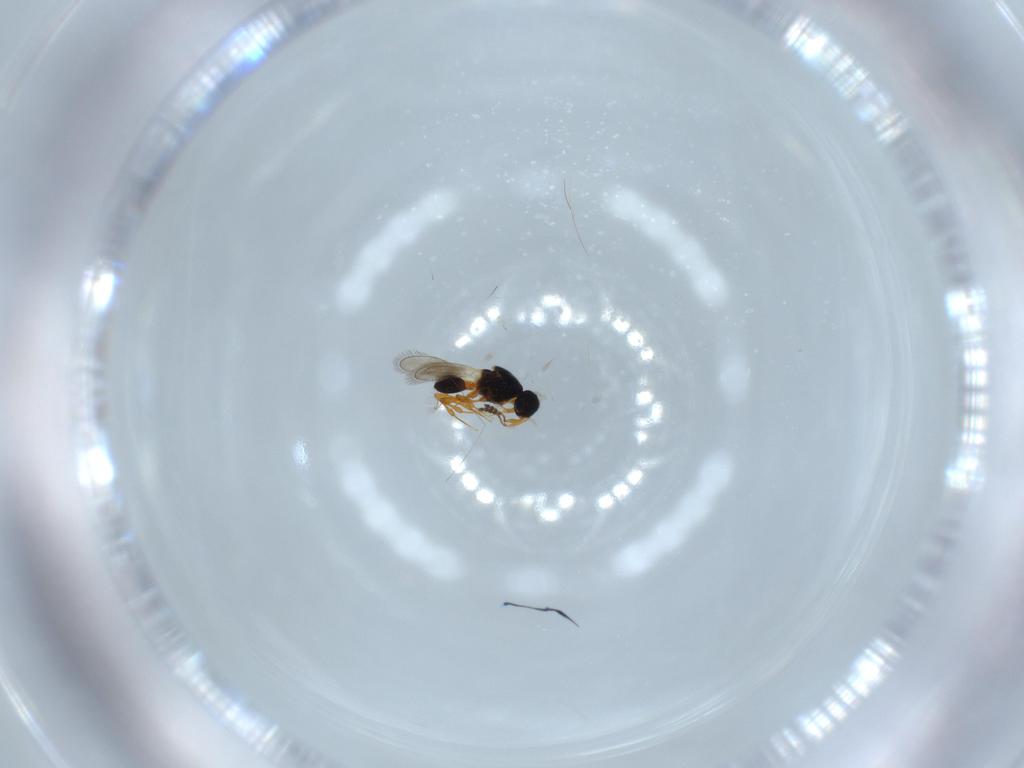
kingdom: Animalia
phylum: Arthropoda
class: Insecta
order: Hymenoptera
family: Platygastridae
